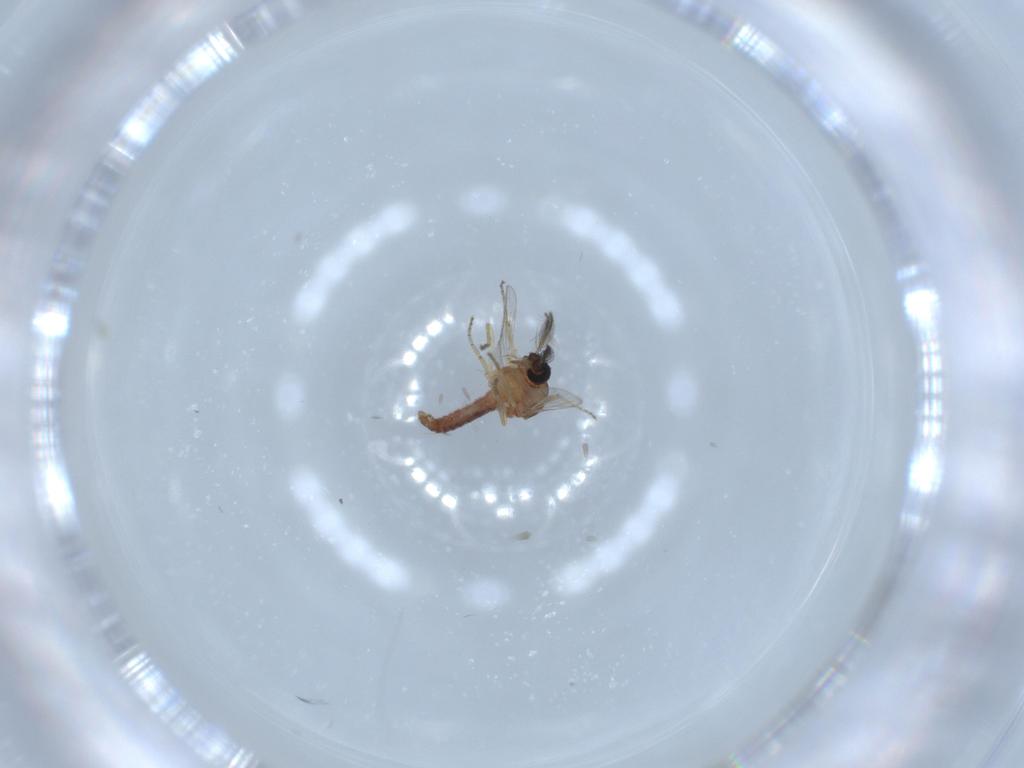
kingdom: Animalia
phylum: Arthropoda
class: Insecta
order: Diptera
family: Ceratopogonidae
